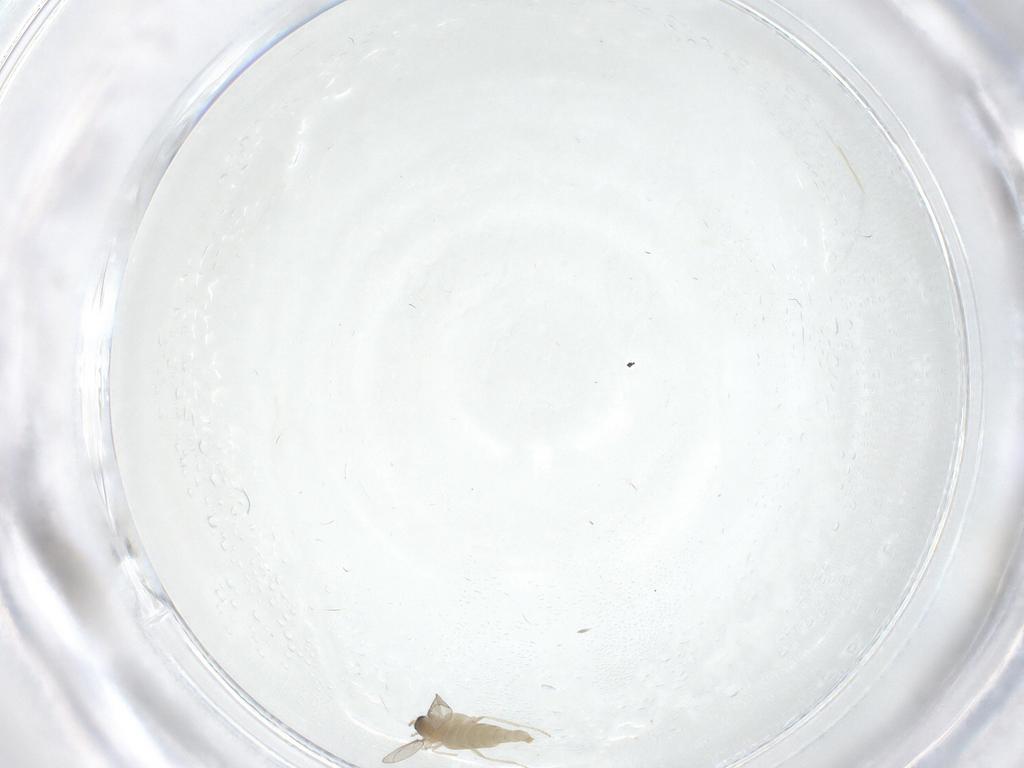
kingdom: Animalia
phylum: Arthropoda
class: Insecta
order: Diptera
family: Cecidomyiidae
